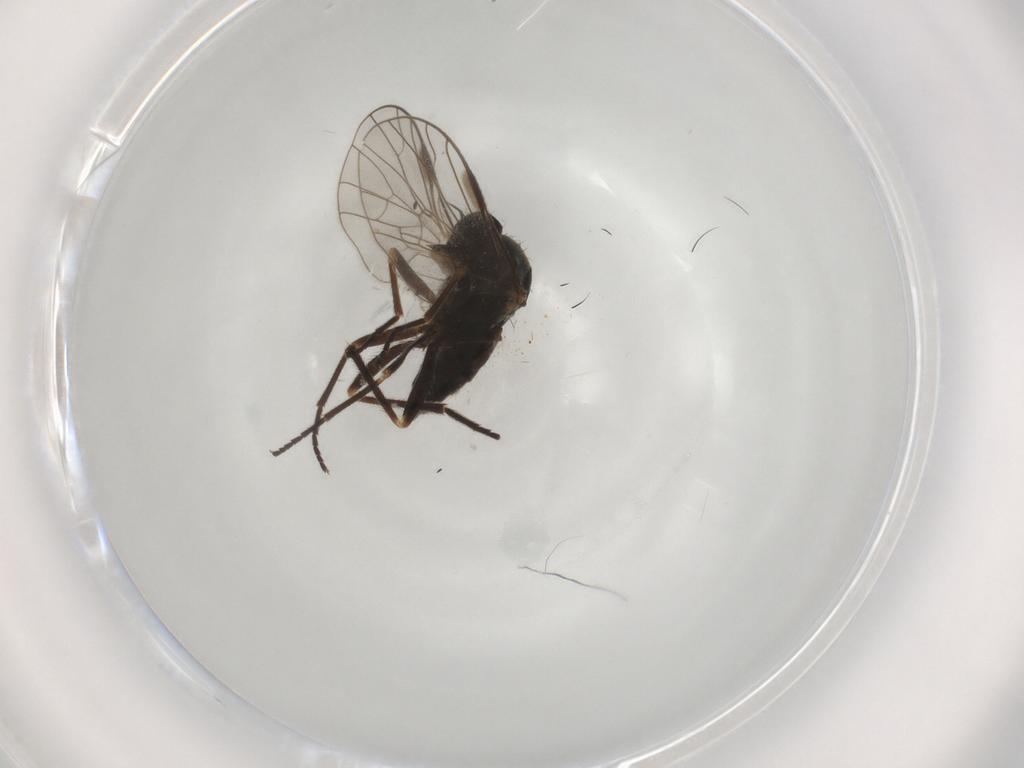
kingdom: Animalia
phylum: Arthropoda
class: Insecta
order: Diptera
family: Empididae
